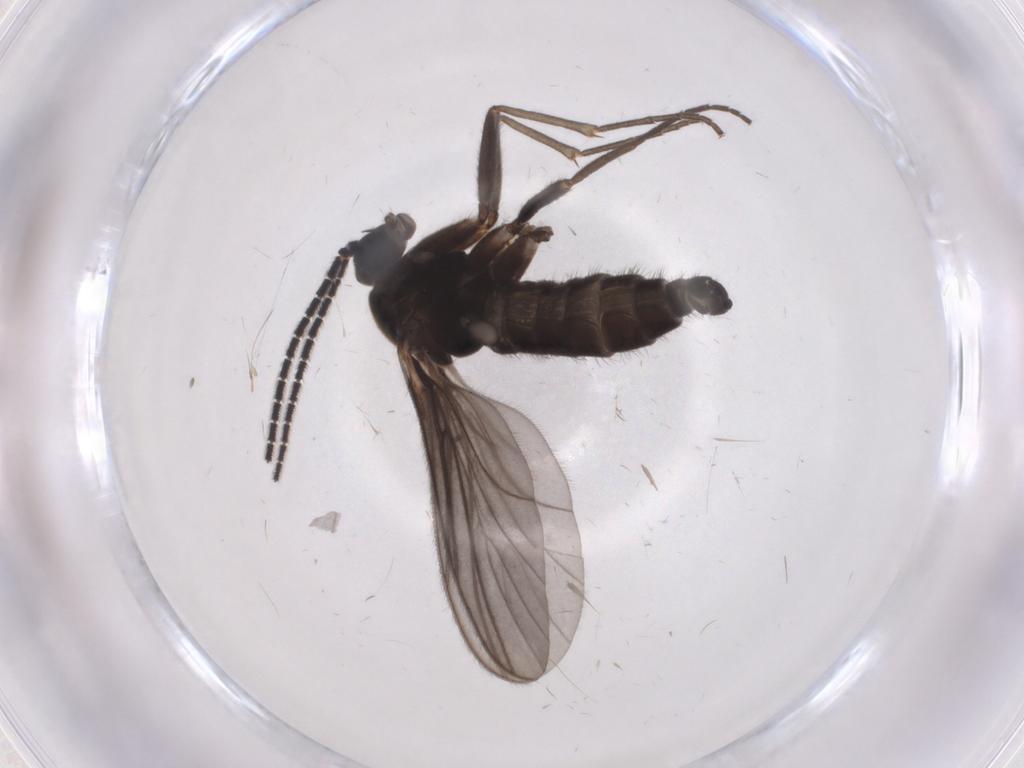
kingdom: Animalia
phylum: Arthropoda
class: Insecta
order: Diptera
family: Sciaridae
